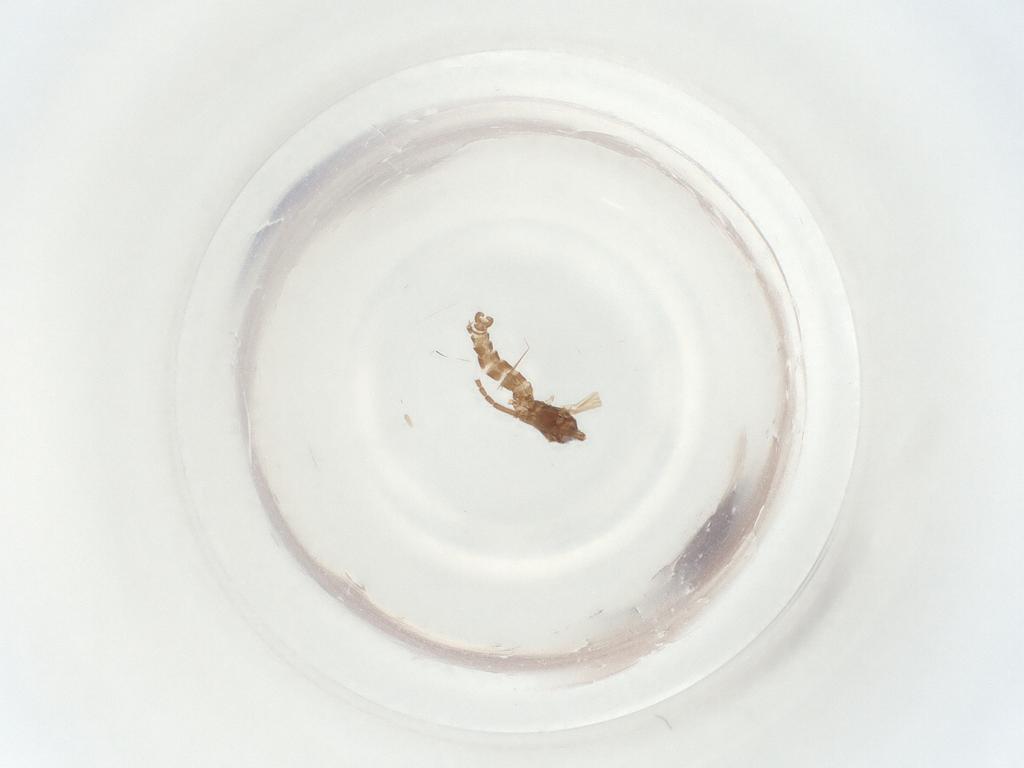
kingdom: Animalia
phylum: Arthropoda
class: Insecta
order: Diptera
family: Sciaridae
